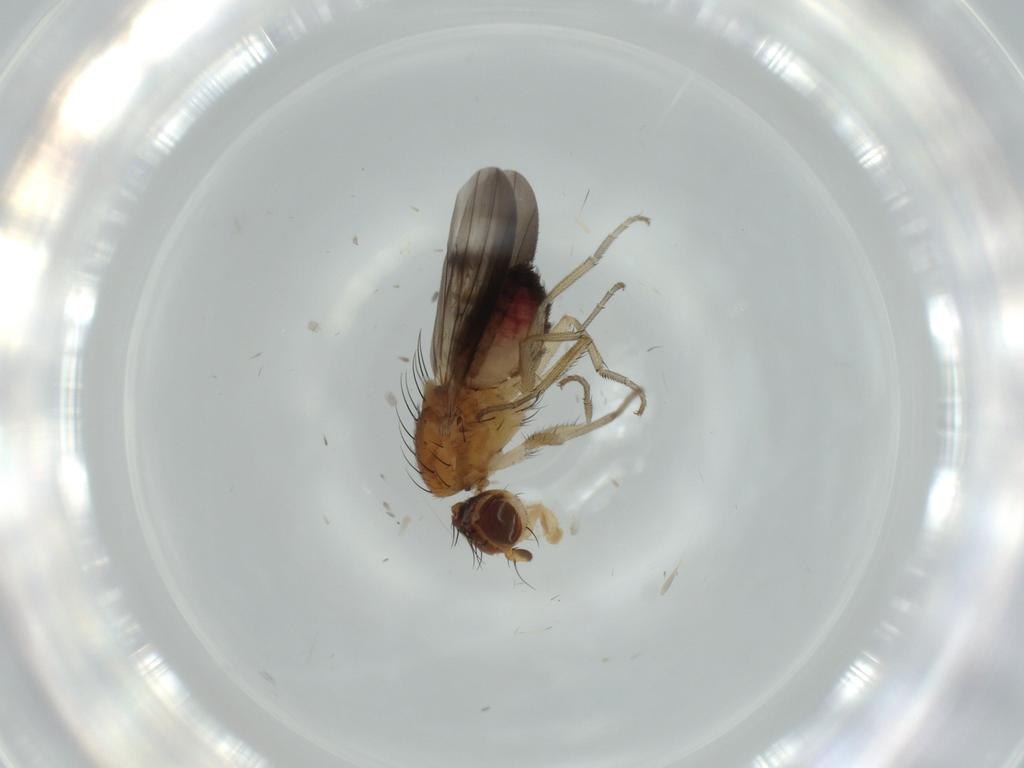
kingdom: Animalia
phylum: Arthropoda
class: Insecta
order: Diptera
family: Heleomyzidae
